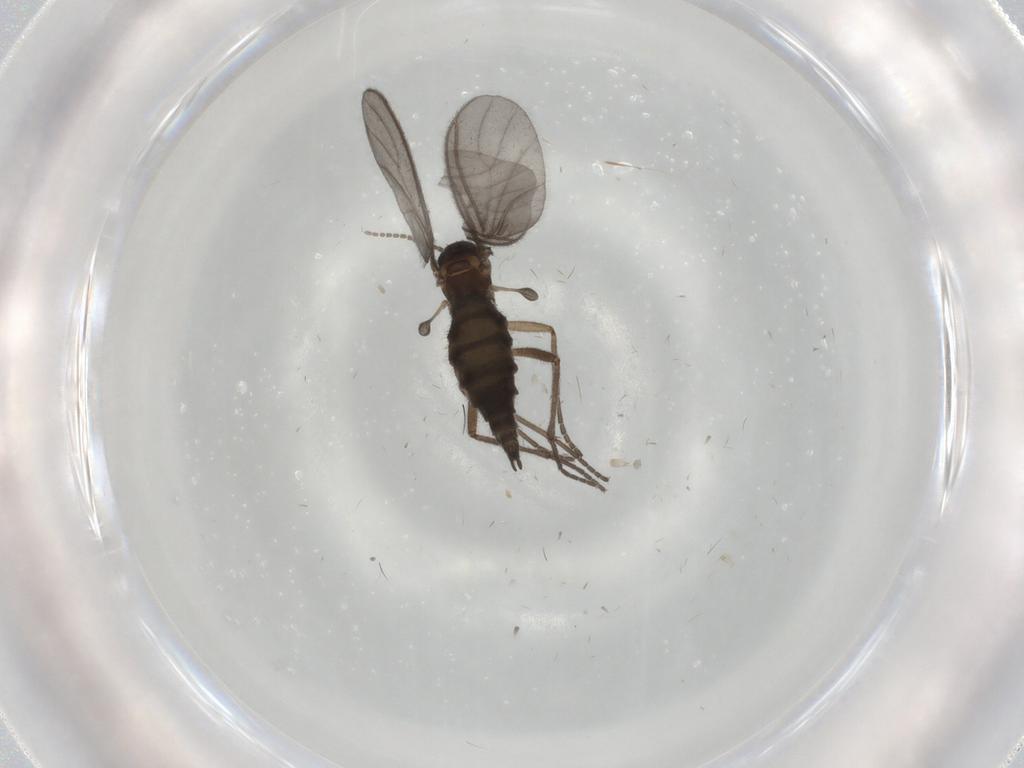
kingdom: Animalia
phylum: Arthropoda
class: Insecta
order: Diptera
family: Sciaridae
